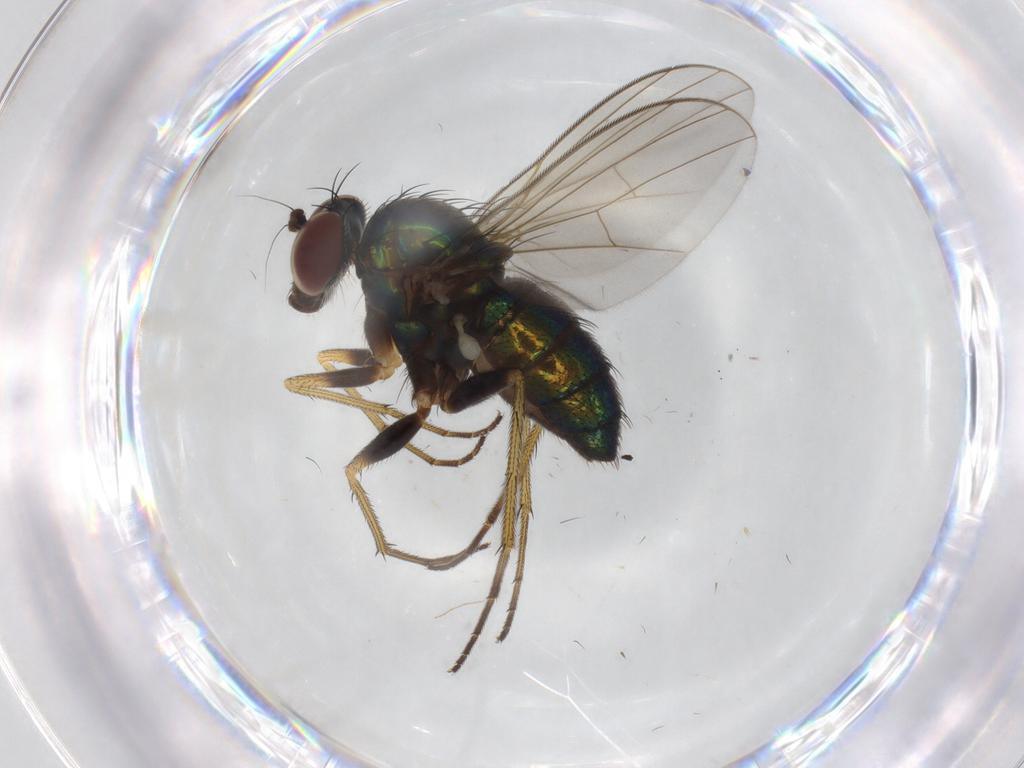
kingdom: Animalia
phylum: Arthropoda
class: Insecta
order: Diptera
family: Dolichopodidae
